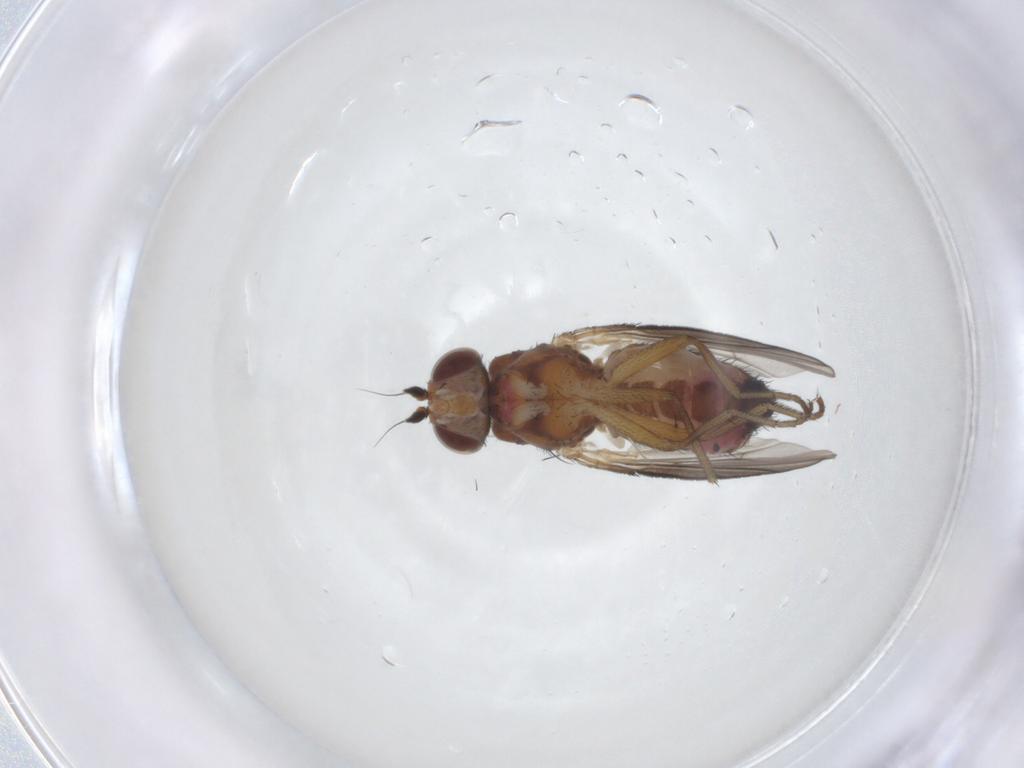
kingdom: Animalia
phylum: Arthropoda
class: Insecta
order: Diptera
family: Heleomyzidae
